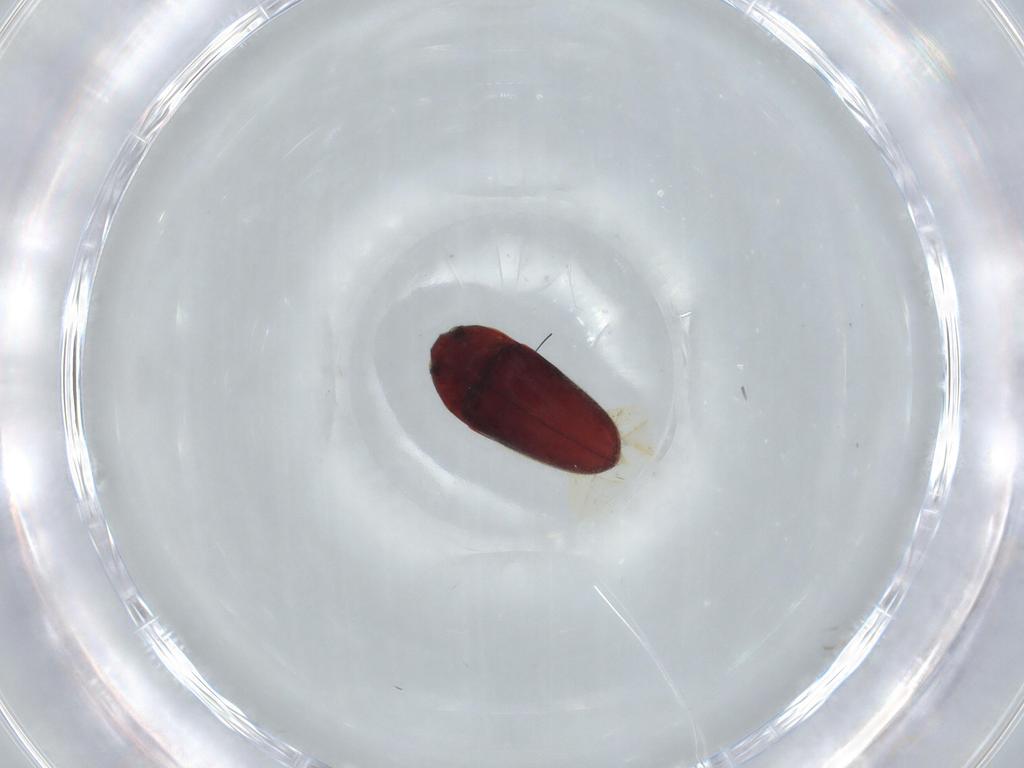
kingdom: Animalia
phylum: Arthropoda
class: Insecta
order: Coleoptera
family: Throscidae
